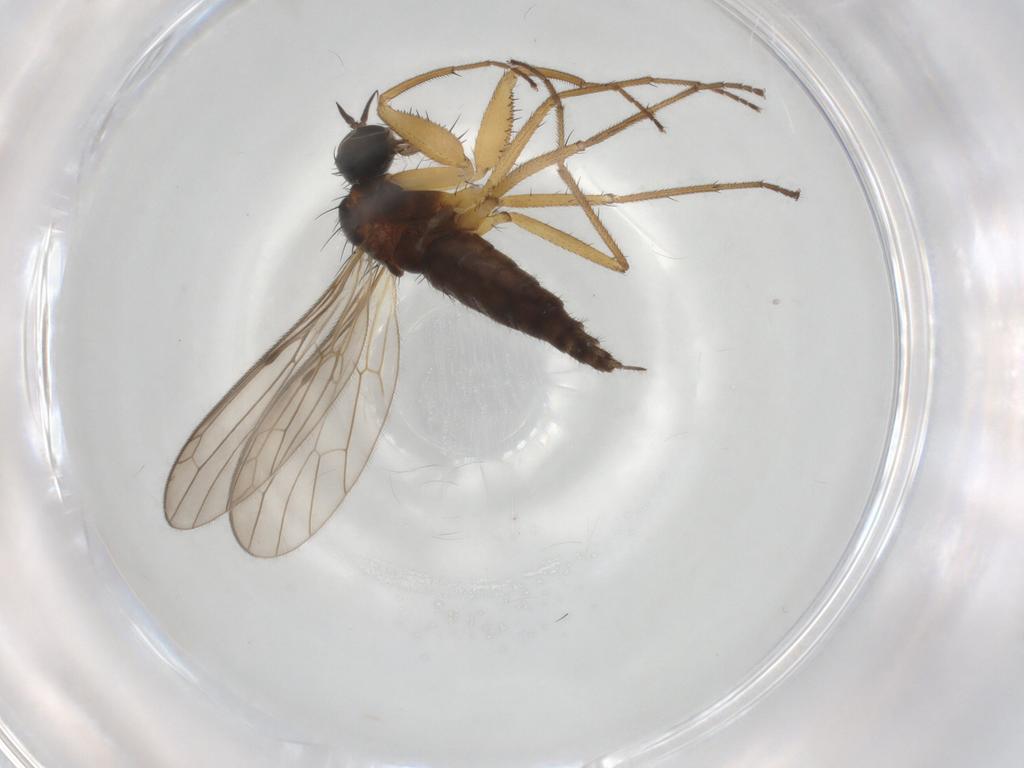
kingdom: Animalia
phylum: Arthropoda
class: Insecta
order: Diptera
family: Chironomidae
